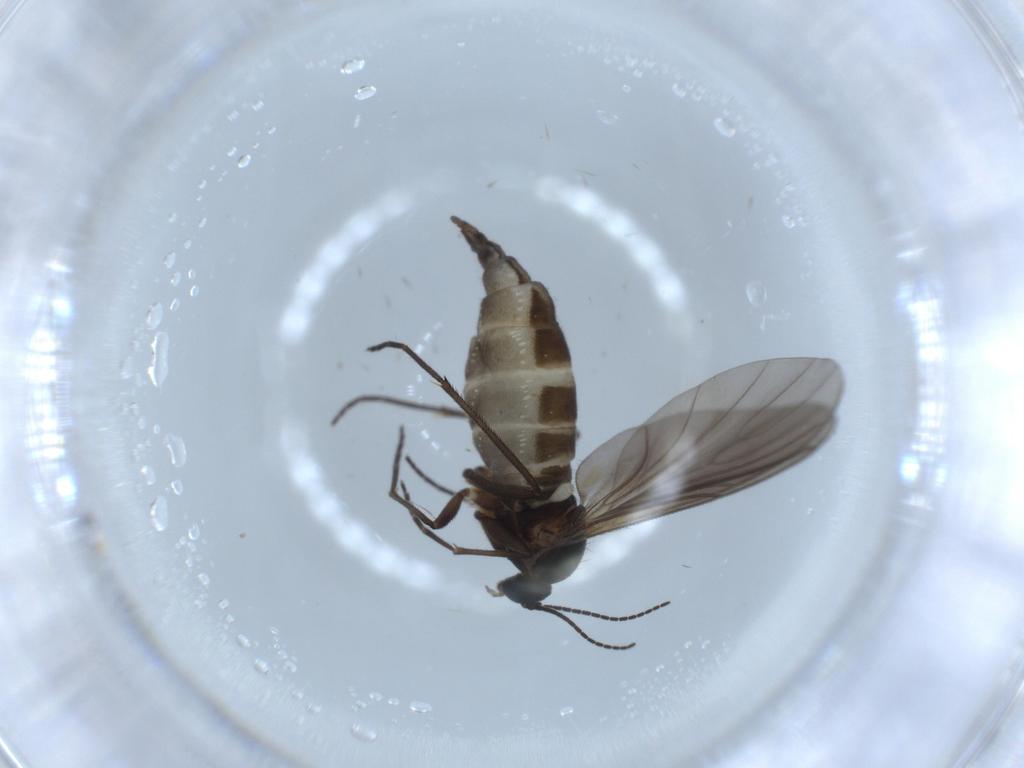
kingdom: Animalia
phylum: Arthropoda
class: Insecta
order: Diptera
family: Sciaridae
